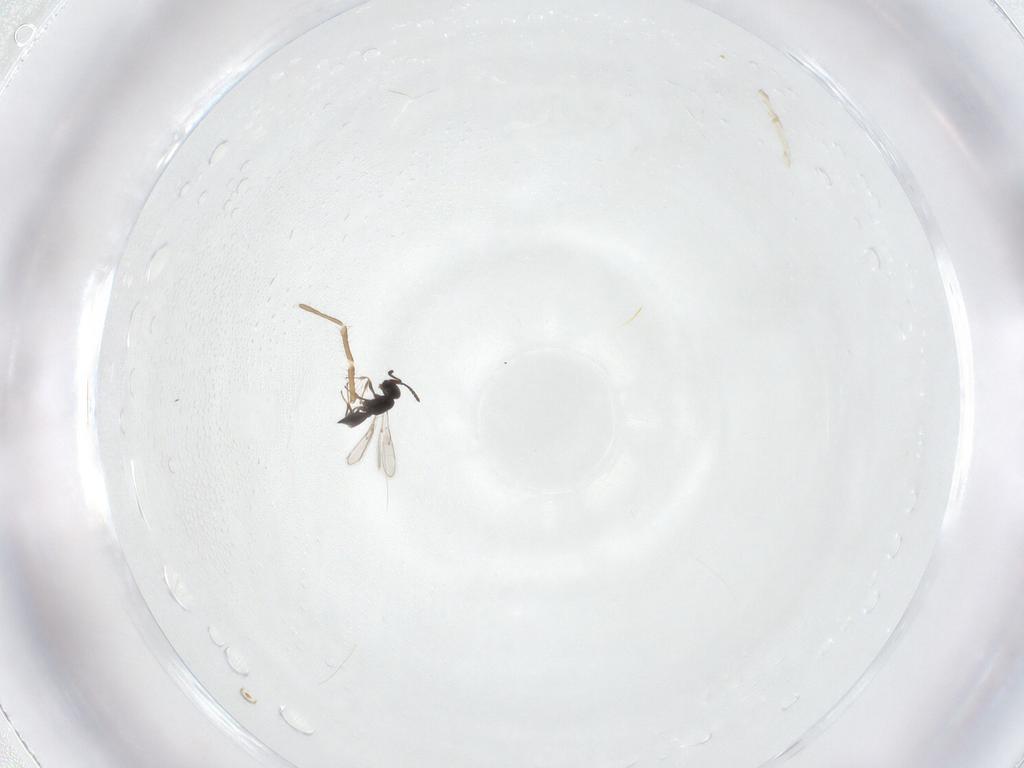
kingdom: Animalia
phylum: Arthropoda
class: Insecta
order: Hymenoptera
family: Scelionidae
